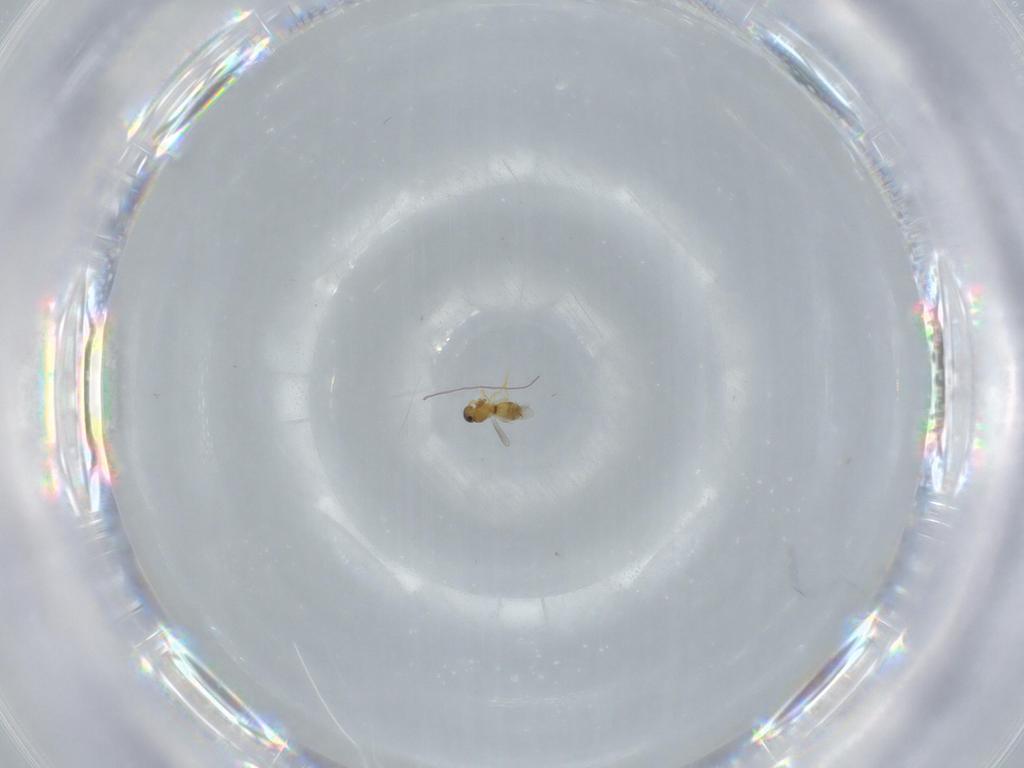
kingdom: Animalia
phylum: Arthropoda
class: Insecta
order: Hymenoptera
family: Platygastridae
